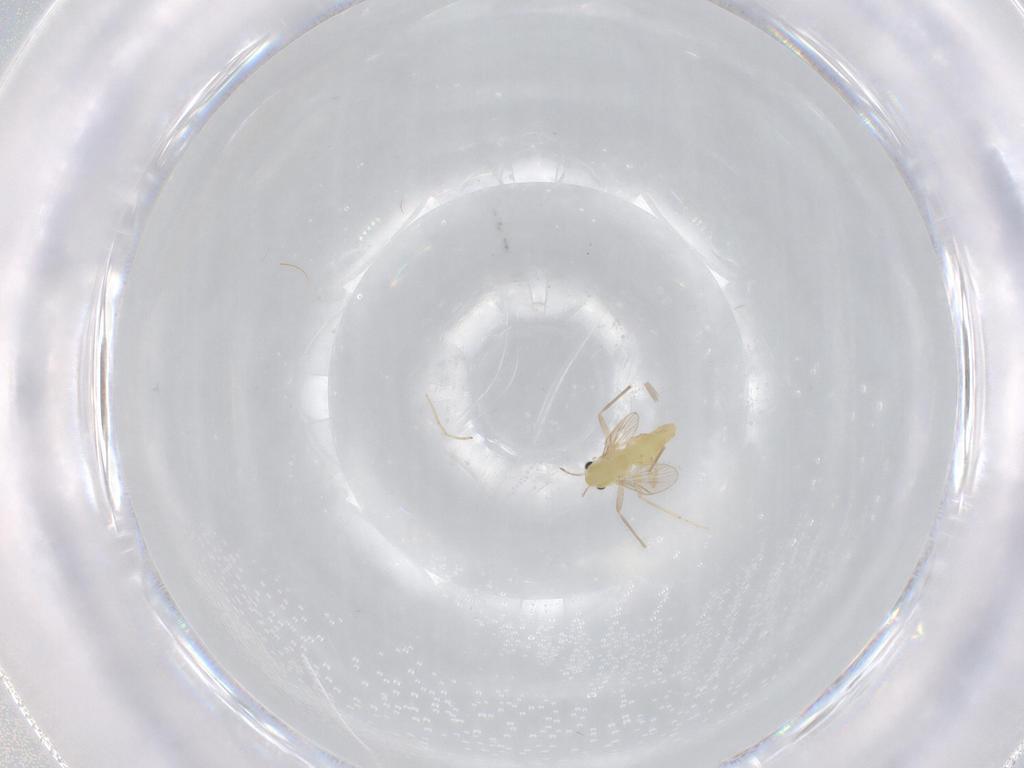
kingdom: Animalia
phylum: Arthropoda
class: Insecta
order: Diptera
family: Chironomidae
